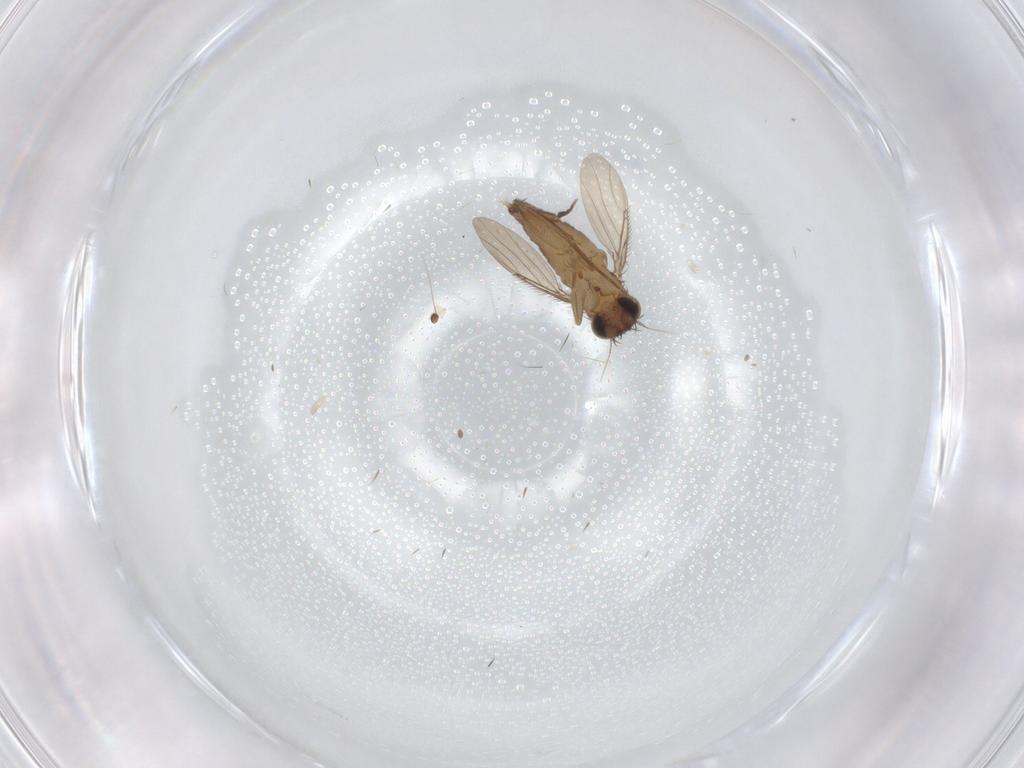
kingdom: Animalia
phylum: Arthropoda
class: Insecta
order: Diptera
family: Phoridae
